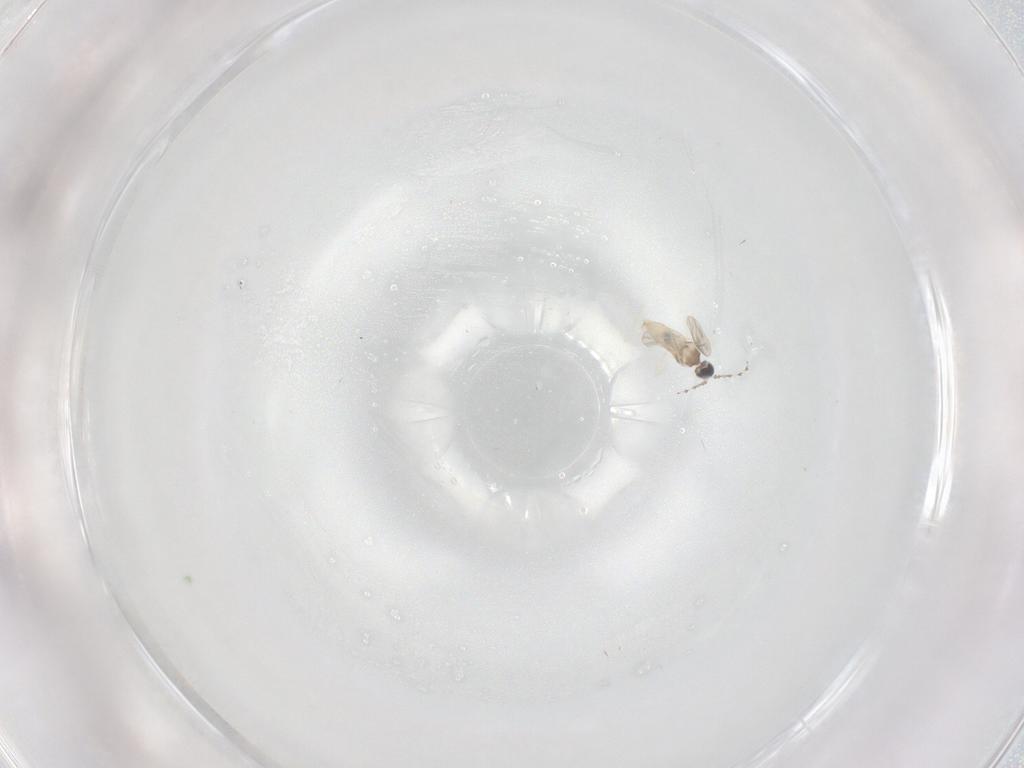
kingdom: Animalia
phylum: Arthropoda
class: Insecta
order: Diptera
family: Cecidomyiidae
